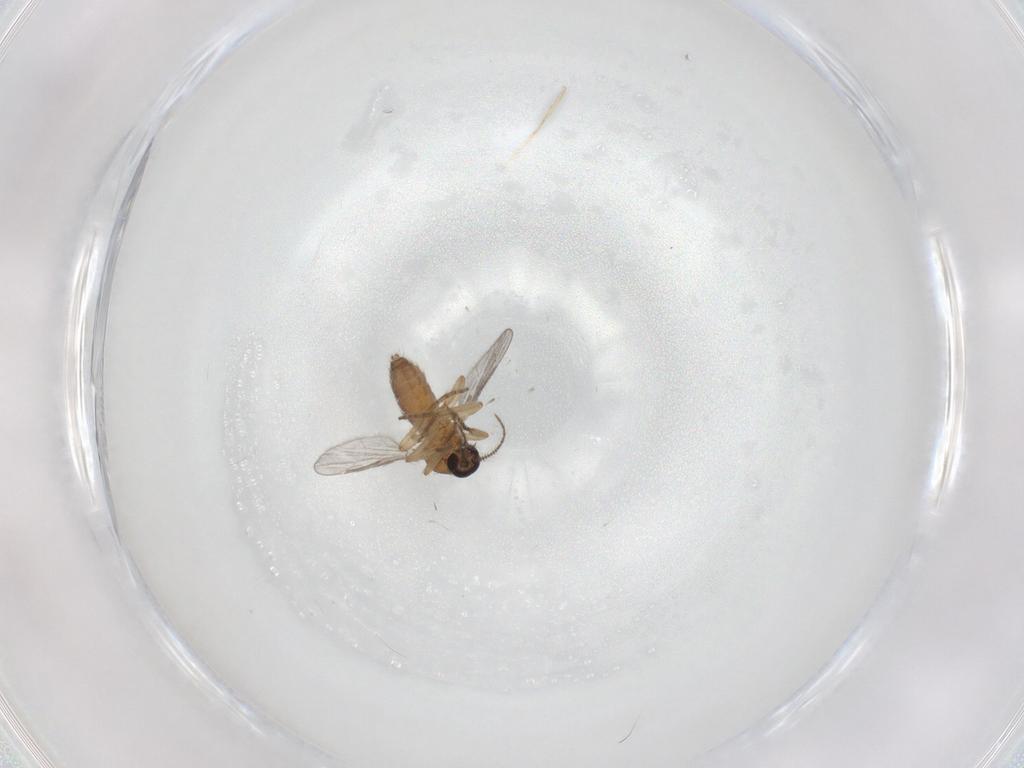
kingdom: Animalia
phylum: Arthropoda
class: Insecta
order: Diptera
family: Ceratopogonidae
